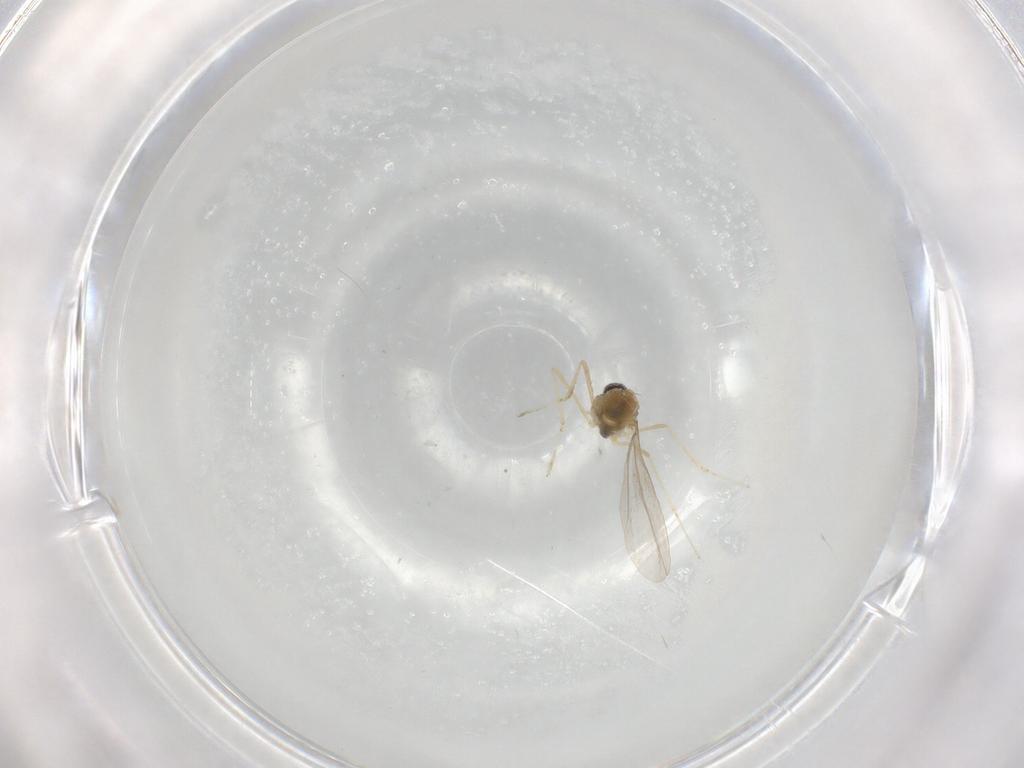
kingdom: Animalia
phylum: Arthropoda
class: Insecta
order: Diptera
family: Cecidomyiidae
